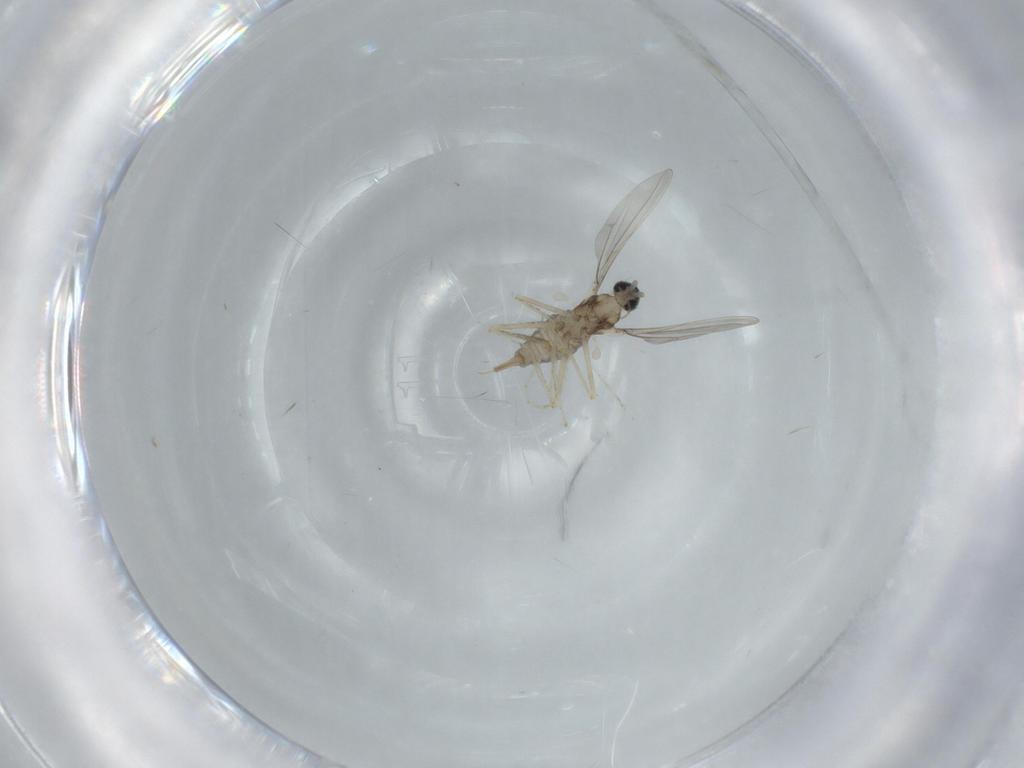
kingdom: Animalia
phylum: Arthropoda
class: Insecta
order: Diptera
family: Cecidomyiidae
